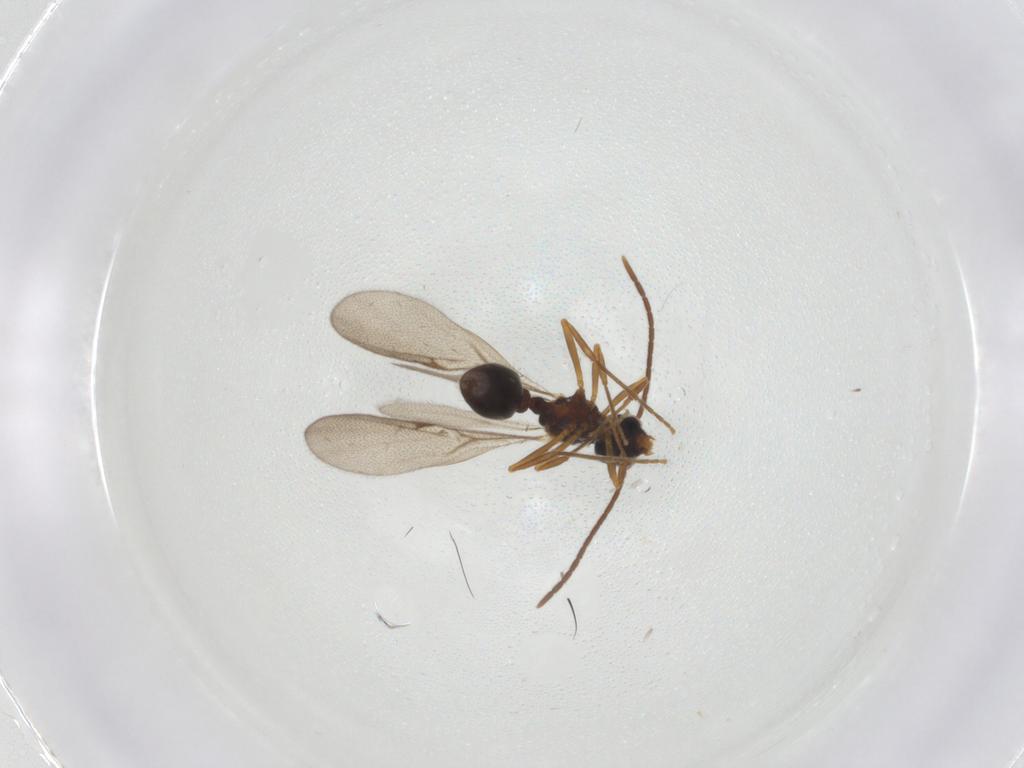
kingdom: Animalia
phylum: Arthropoda
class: Insecta
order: Hymenoptera
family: Formicidae
